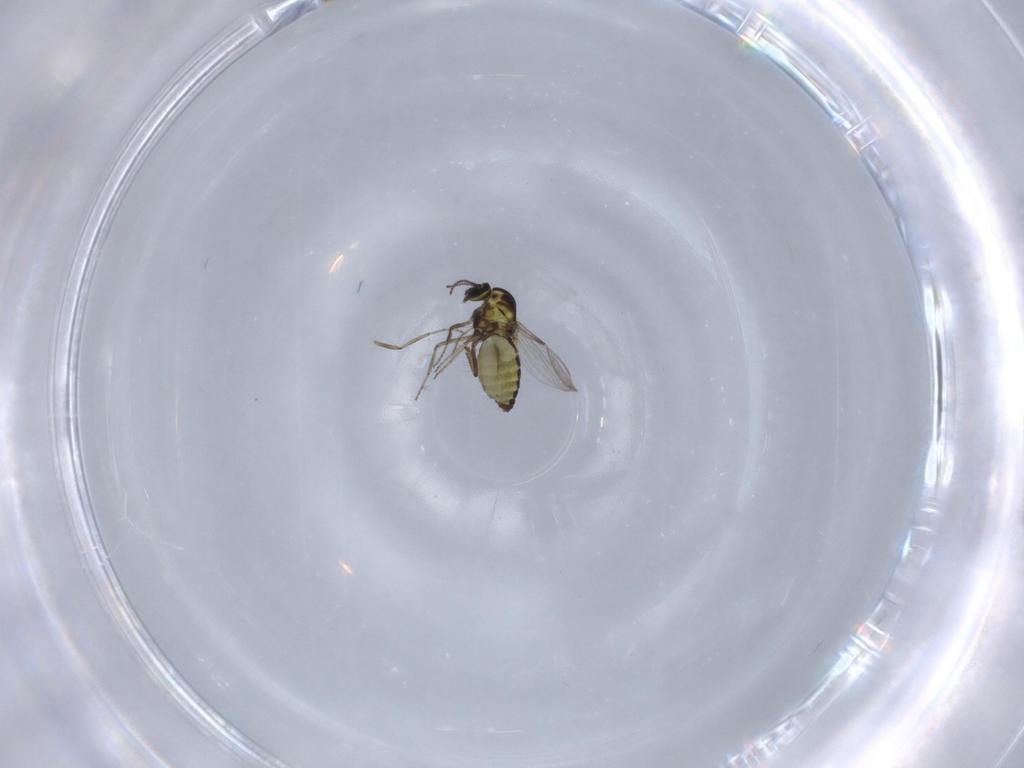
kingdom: Animalia
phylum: Arthropoda
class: Insecta
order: Diptera
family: Ceratopogonidae
